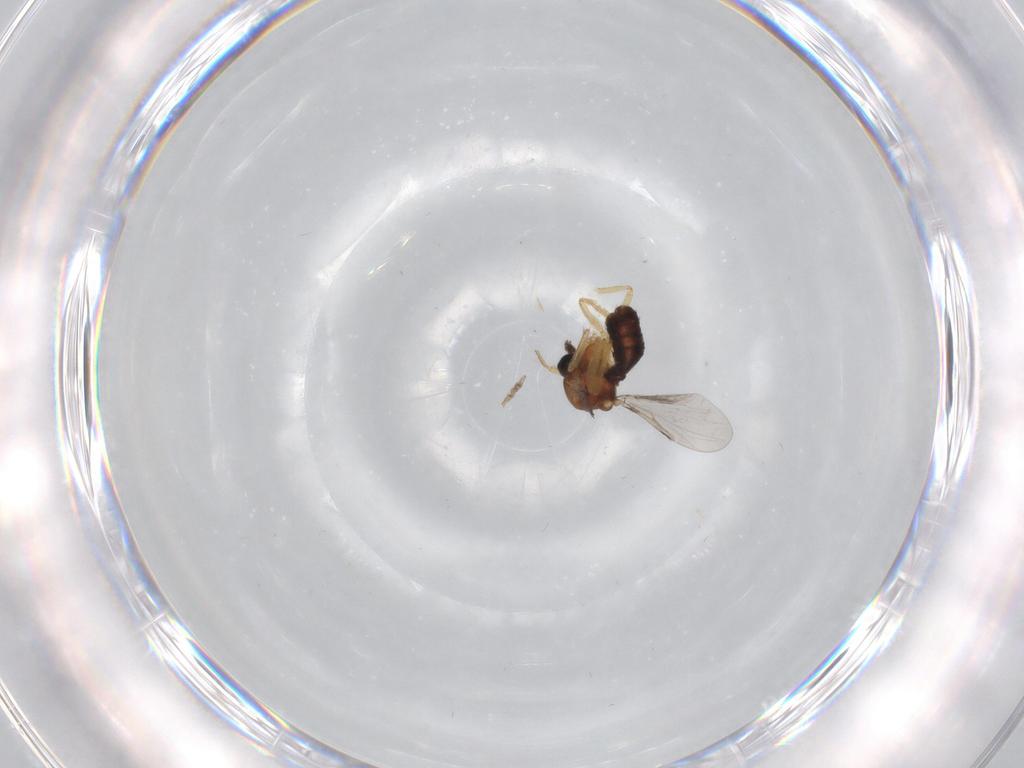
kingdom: Animalia
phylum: Arthropoda
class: Insecta
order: Diptera
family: Ceratopogonidae
